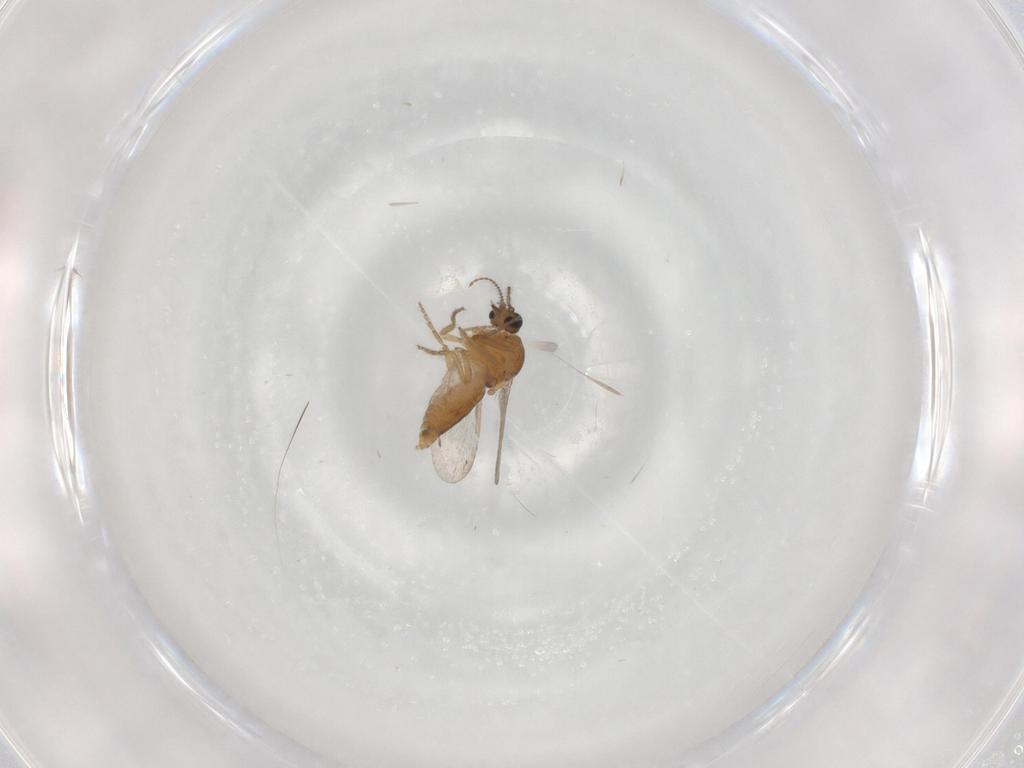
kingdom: Animalia
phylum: Arthropoda
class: Insecta
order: Diptera
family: Ceratopogonidae
